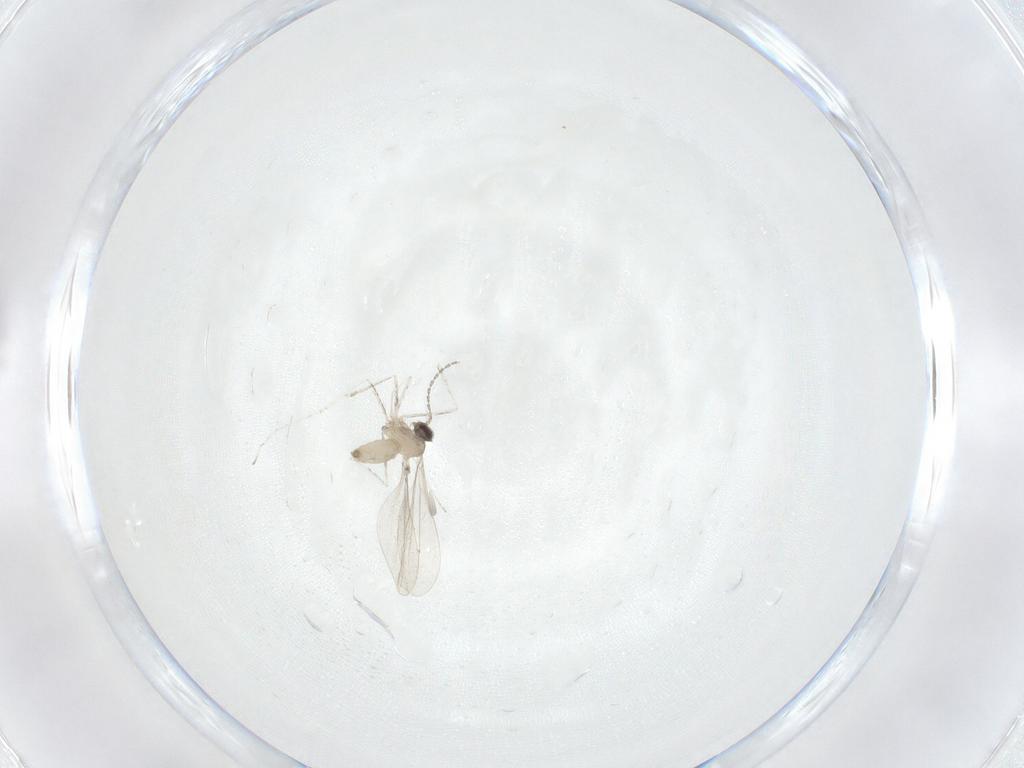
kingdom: Animalia
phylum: Arthropoda
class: Insecta
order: Diptera
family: Cecidomyiidae
